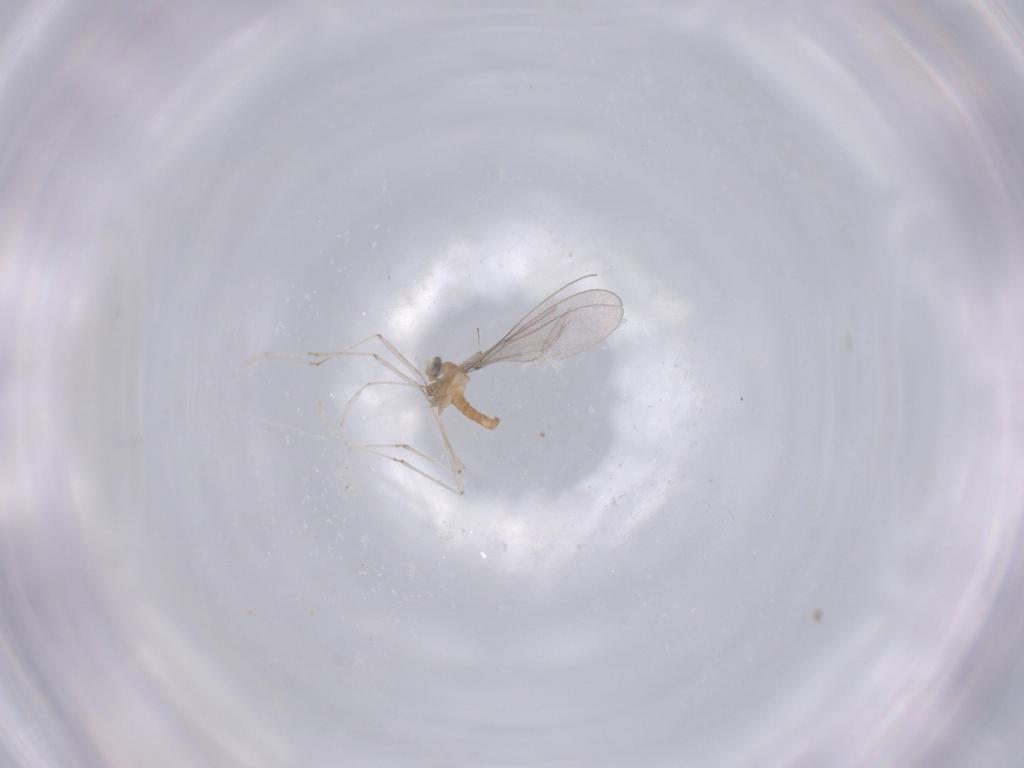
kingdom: Animalia
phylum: Arthropoda
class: Insecta
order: Diptera
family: Cecidomyiidae
